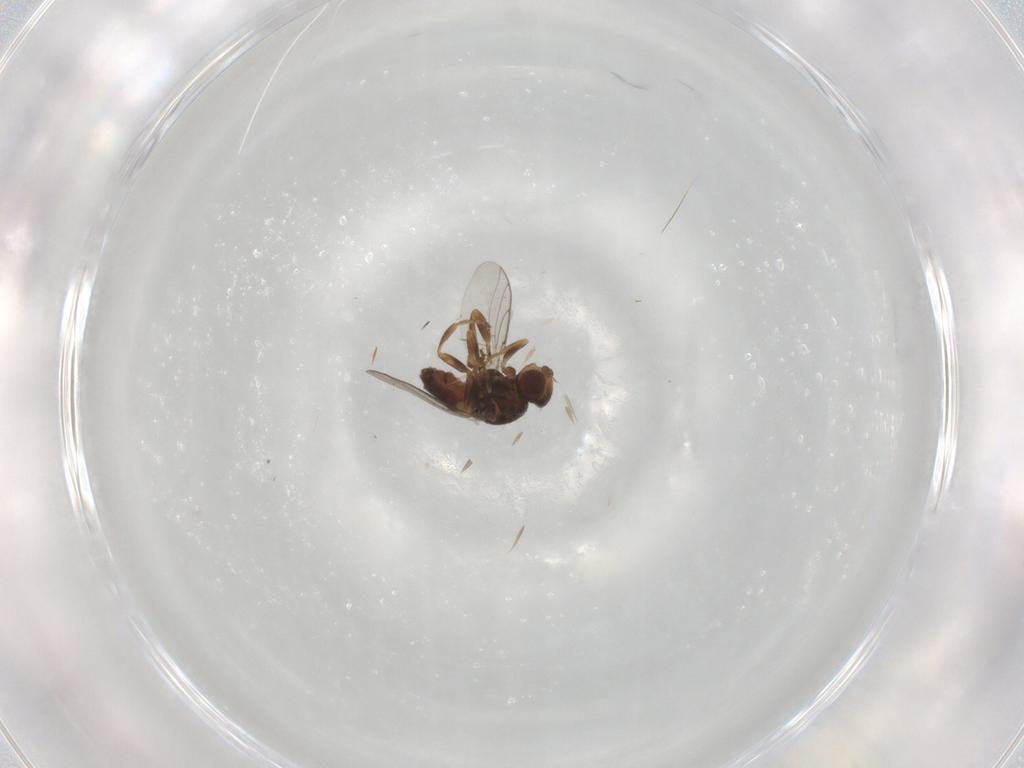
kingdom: Animalia
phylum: Arthropoda
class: Insecta
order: Diptera
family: Chloropidae
